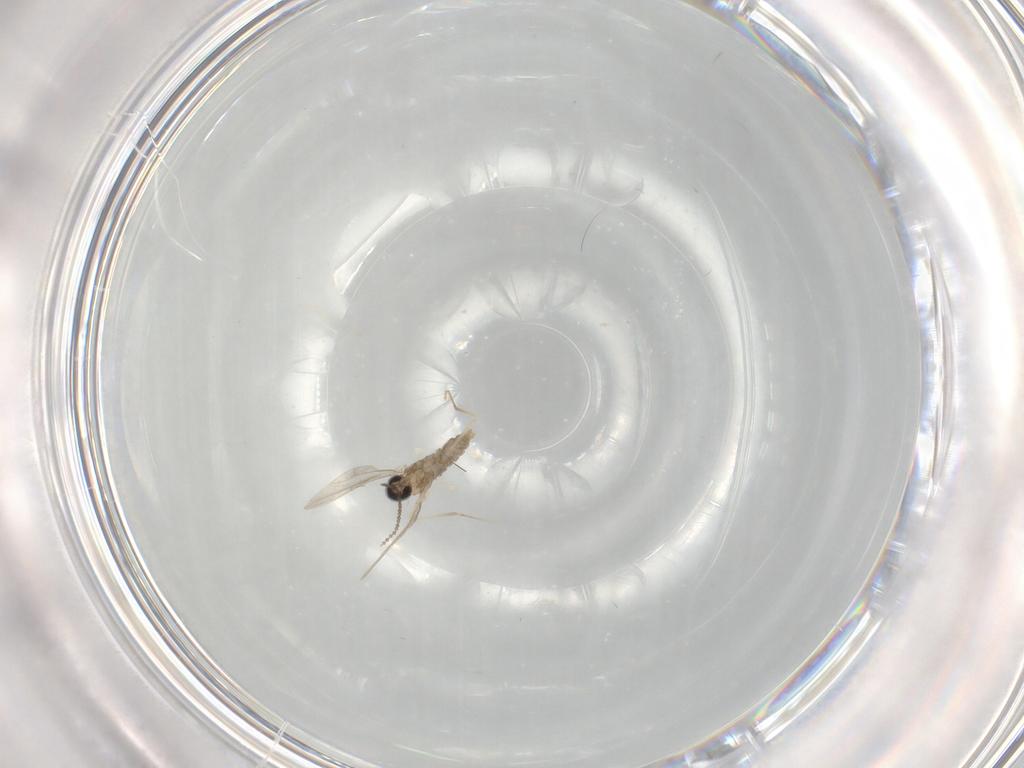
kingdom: Animalia
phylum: Arthropoda
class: Insecta
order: Diptera
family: Cecidomyiidae
